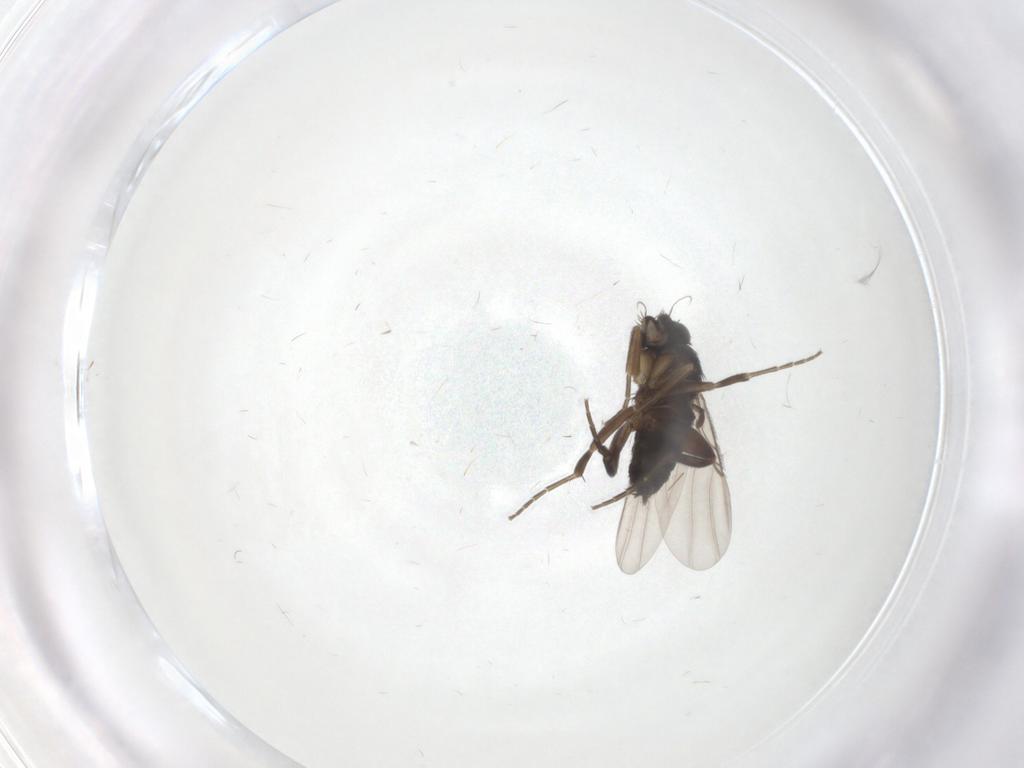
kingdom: Animalia
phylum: Arthropoda
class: Insecta
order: Diptera
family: Phoridae
